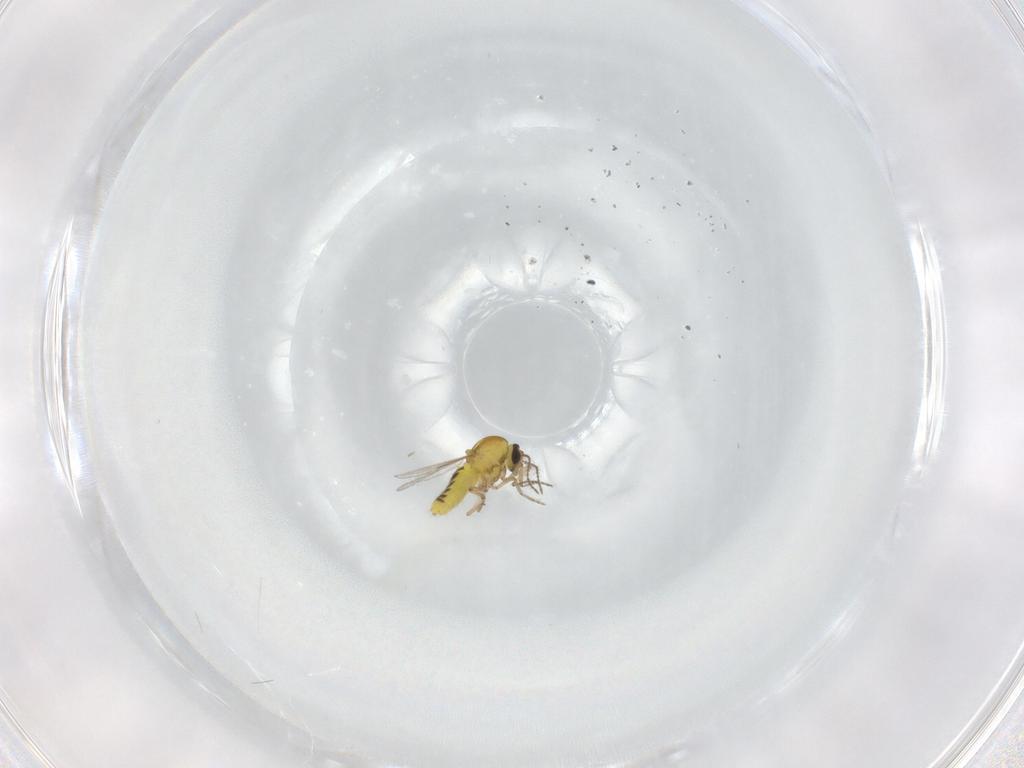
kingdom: Animalia
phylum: Arthropoda
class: Insecta
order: Diptera
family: Ceratopogonidae
